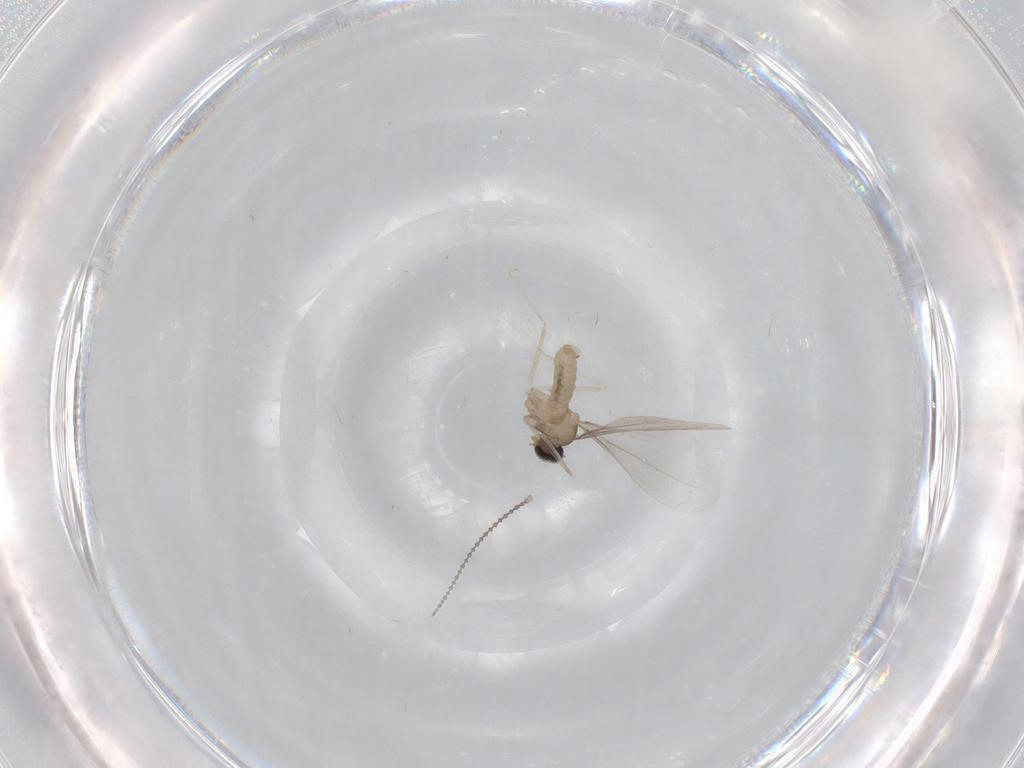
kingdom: Animalia
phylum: Arthropoda
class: Insecta
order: Diptera
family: Cecidomyiidae
